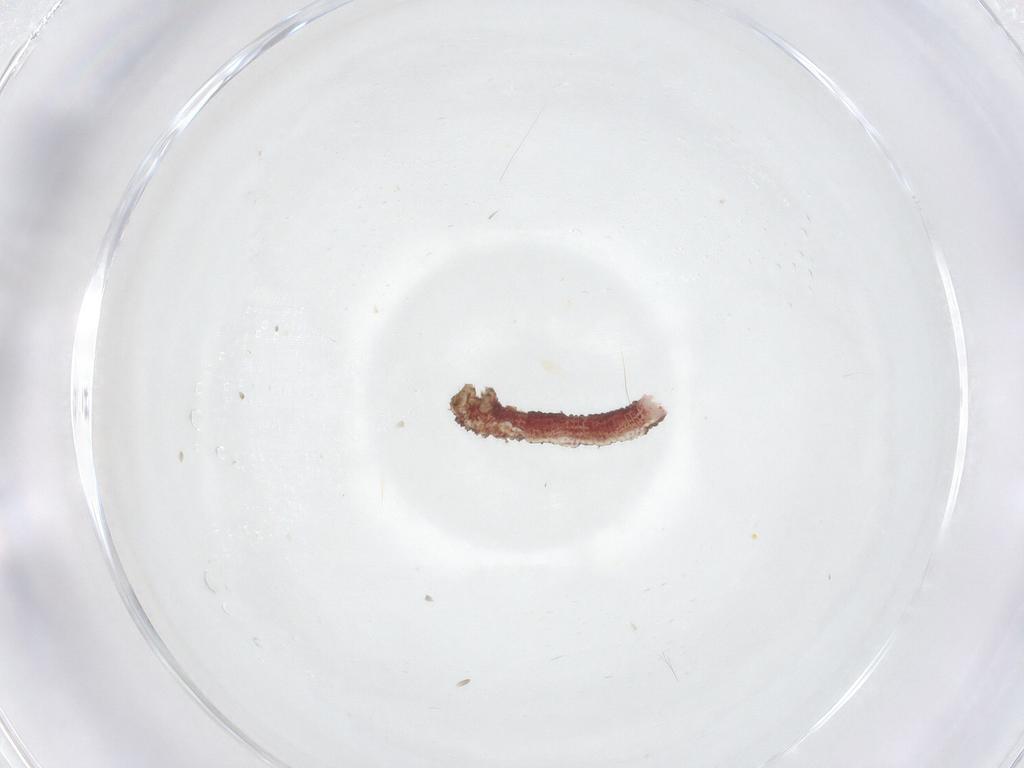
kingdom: Animalia
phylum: Arthropoda
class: Insecta
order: Lepidoptera
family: Geometridae
